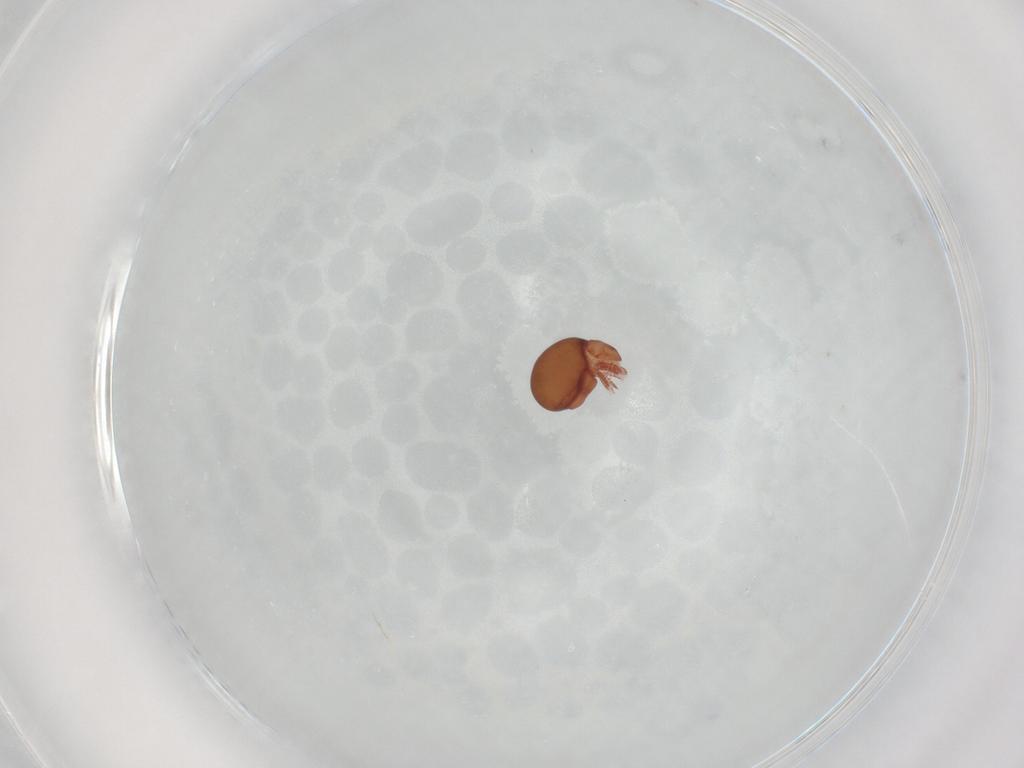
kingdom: Animalia
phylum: Arthropoda
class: Arachnida
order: Sarcoptiformes
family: Phthiracaridae
